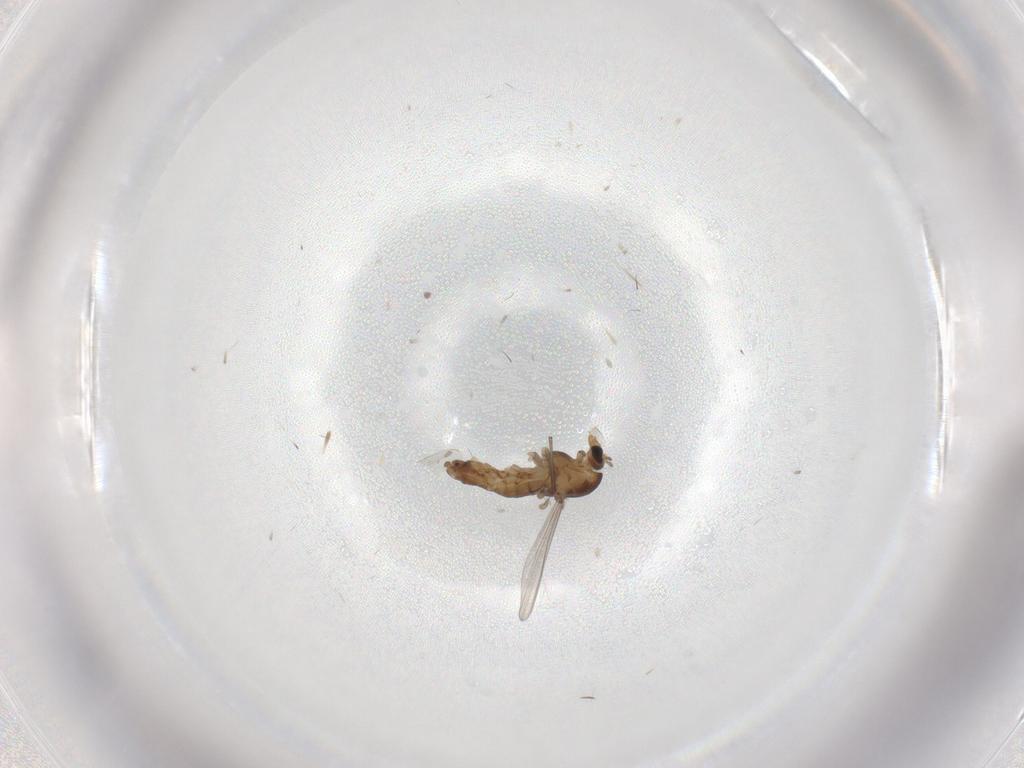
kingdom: Animalia
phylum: Arthropoda
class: Insecta
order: Diptera
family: Chironomidae
